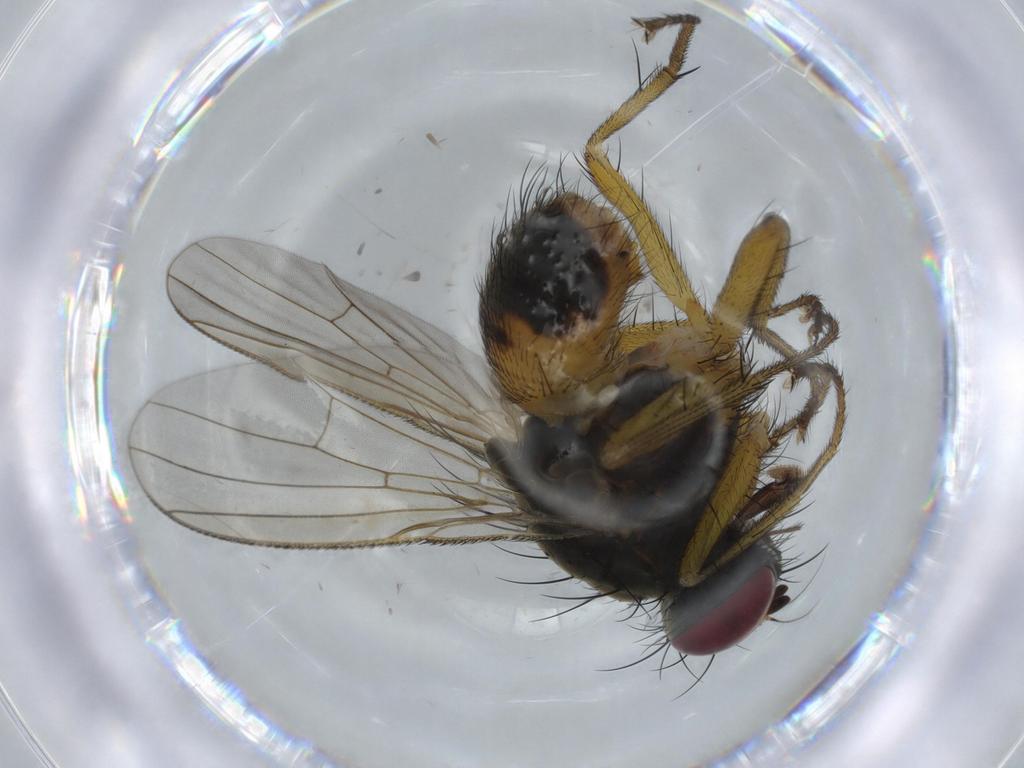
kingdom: Animalia
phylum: Arthropoda
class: Insecta
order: Diptera
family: Muscidae
